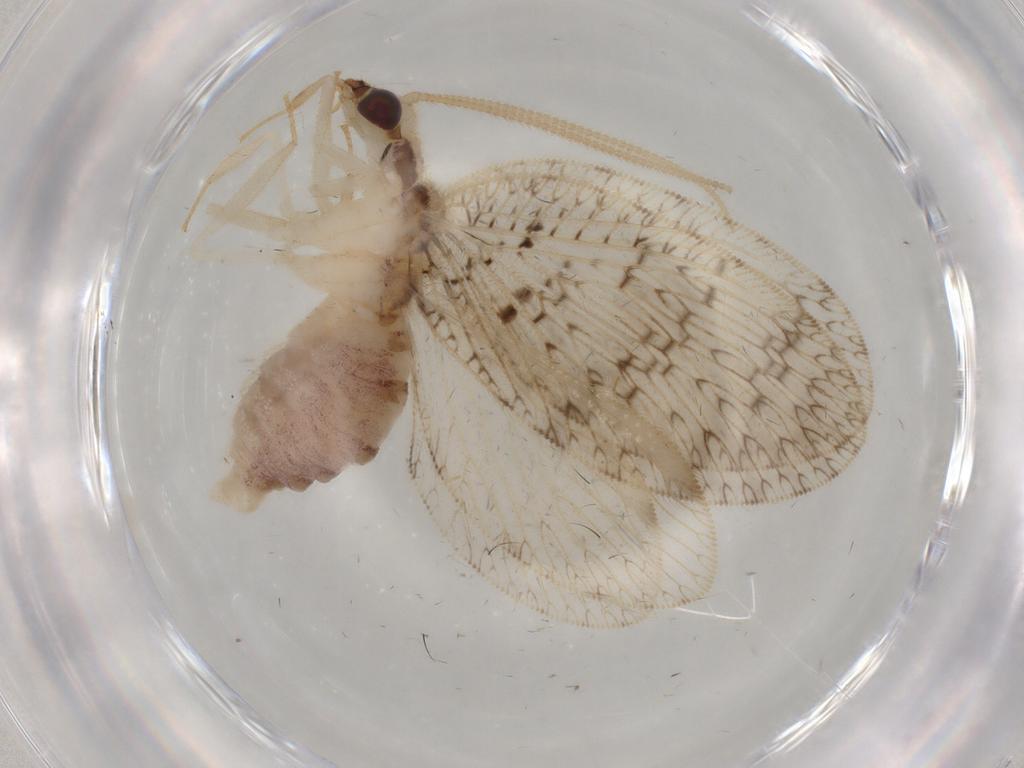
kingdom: Animalia
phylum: Arthropoda
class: Insecta
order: Neuroptera
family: Hemerobiidae
